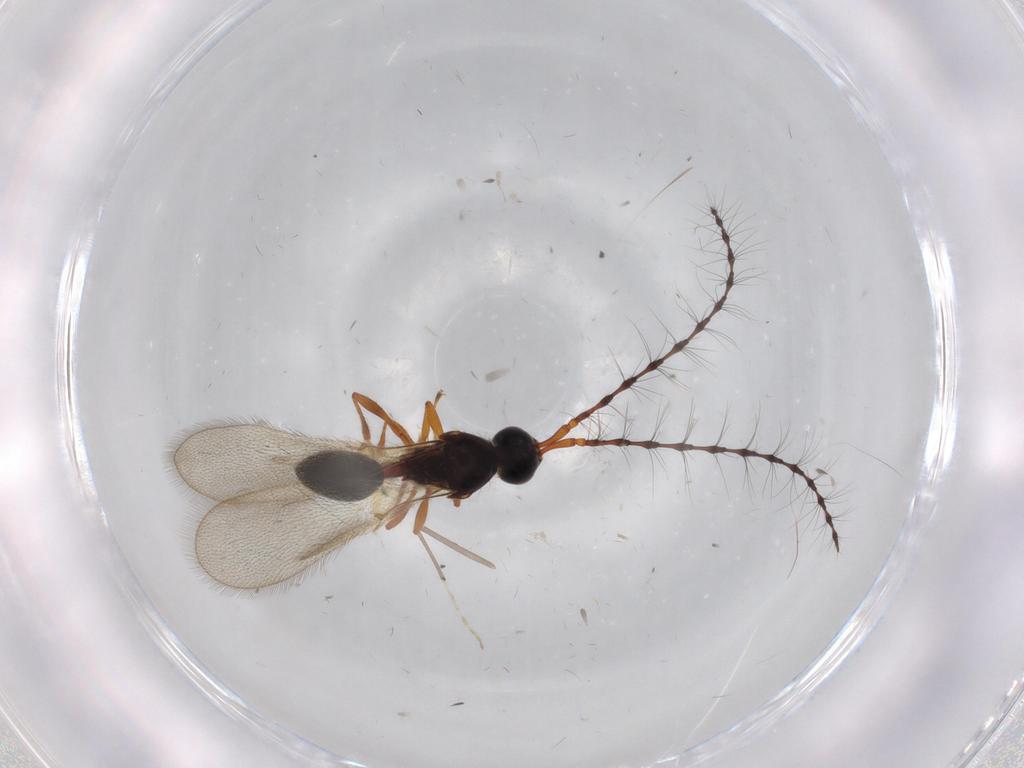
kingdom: Animalia
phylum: Arthropoda
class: Insecta
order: Hymenoptera
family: Diapriidae
